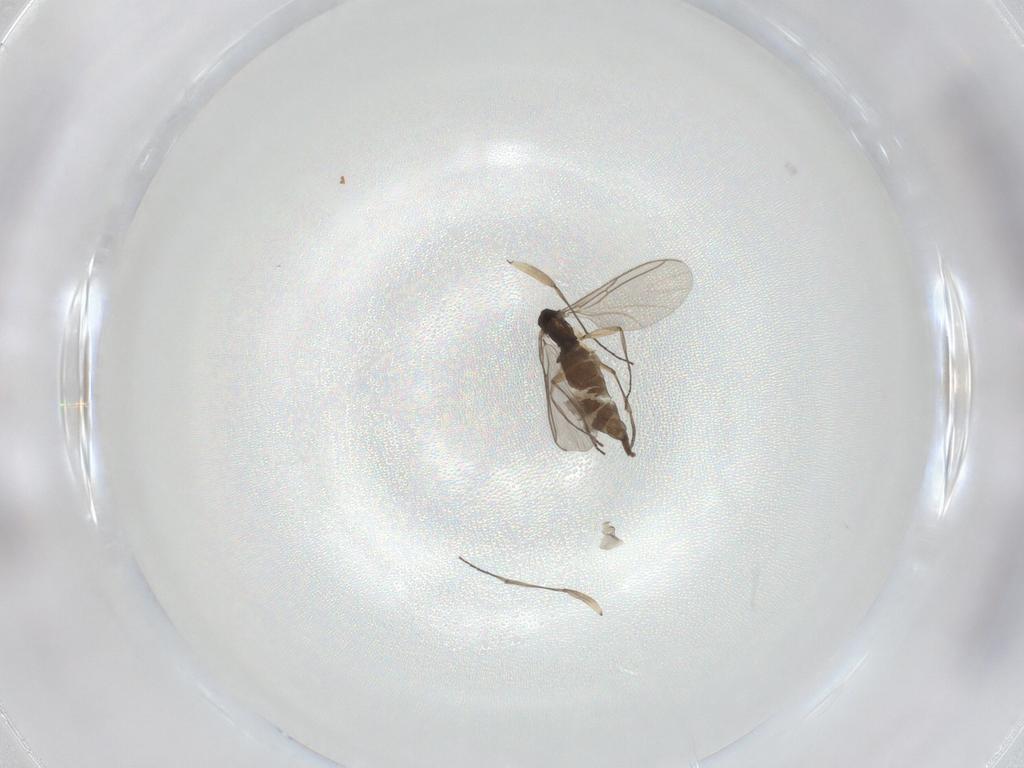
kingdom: Animalia
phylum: Arthropoda
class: Insecta
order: Diptera
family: Sciaridae
